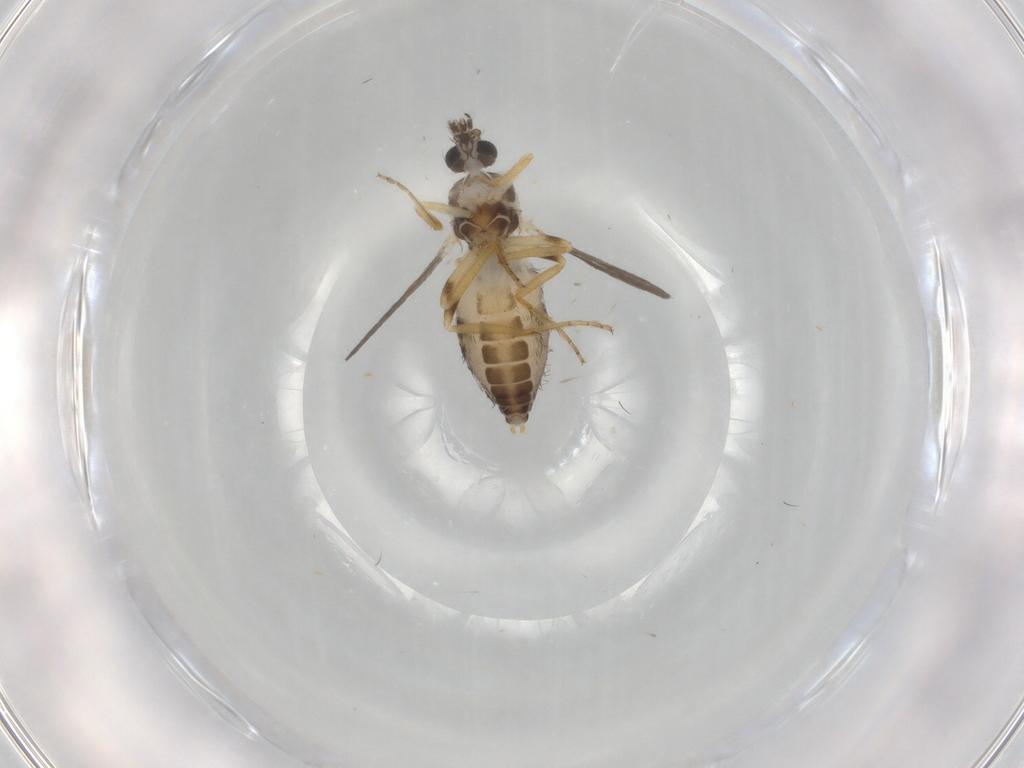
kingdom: Animalia
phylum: Arthropoda
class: Insecta
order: Diptera
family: Ceratopogonidae
